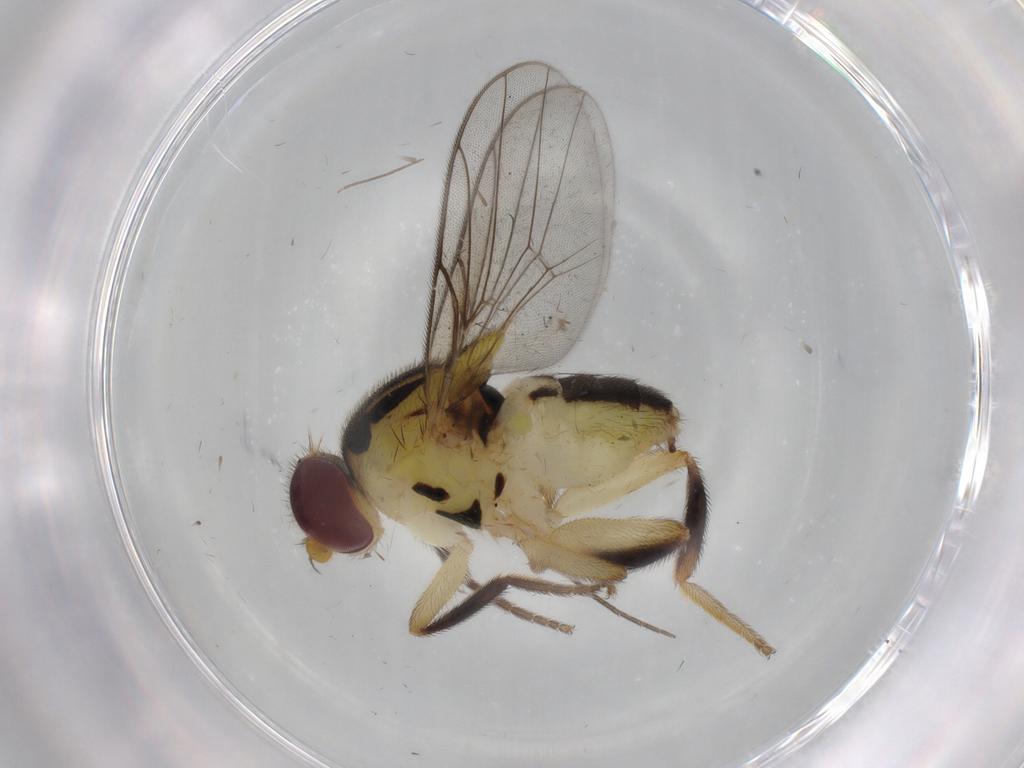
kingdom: Animalia
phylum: Arthropoda
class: Insecta
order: Diptera
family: Chloropidae
